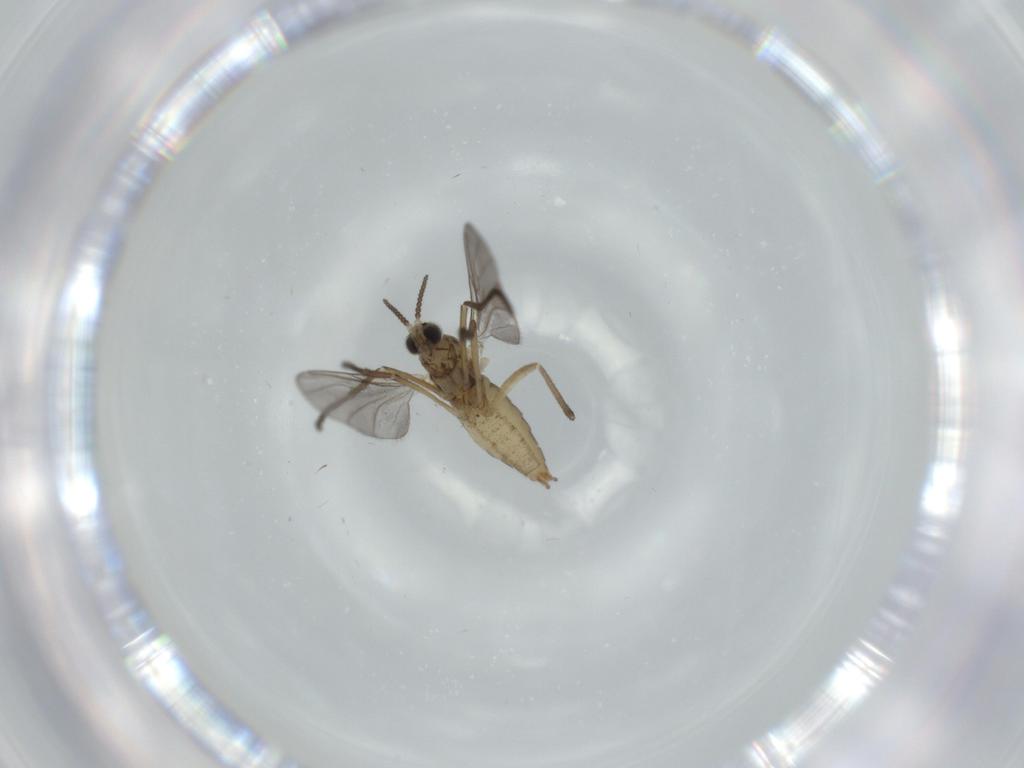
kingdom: Animalia
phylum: Arthropoda
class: Insecta
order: Diptera
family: Cecidomyiidae
